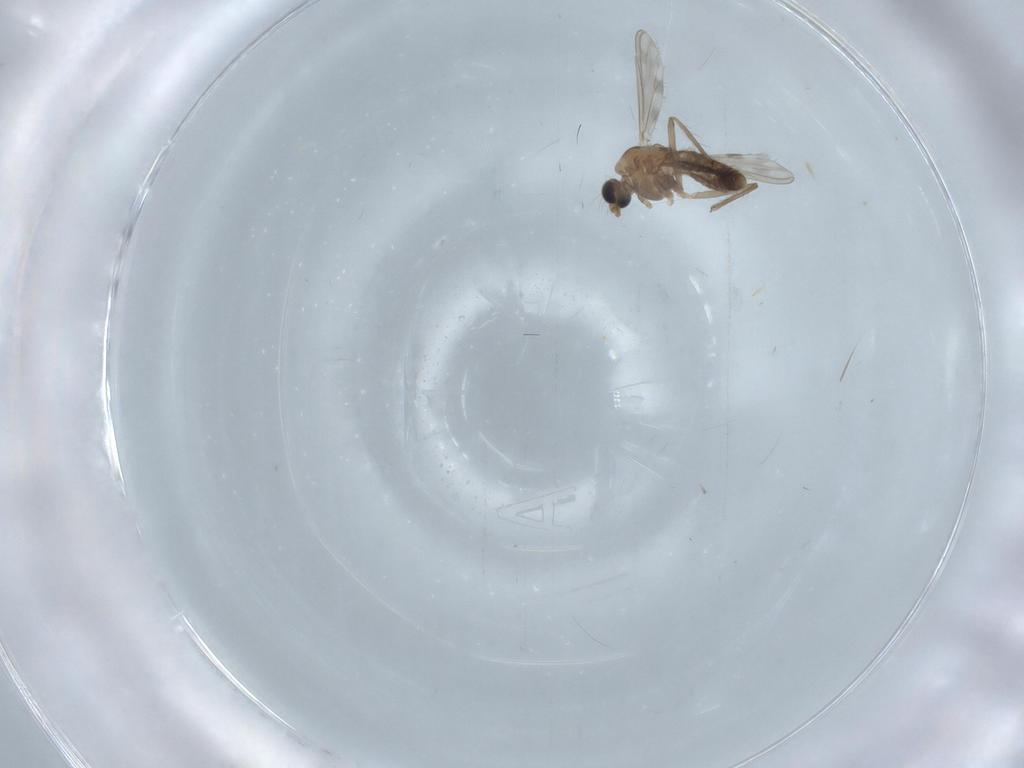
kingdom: Animalia
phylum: Arthropoda
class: Insecta
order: Diptera
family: Chironomidae
